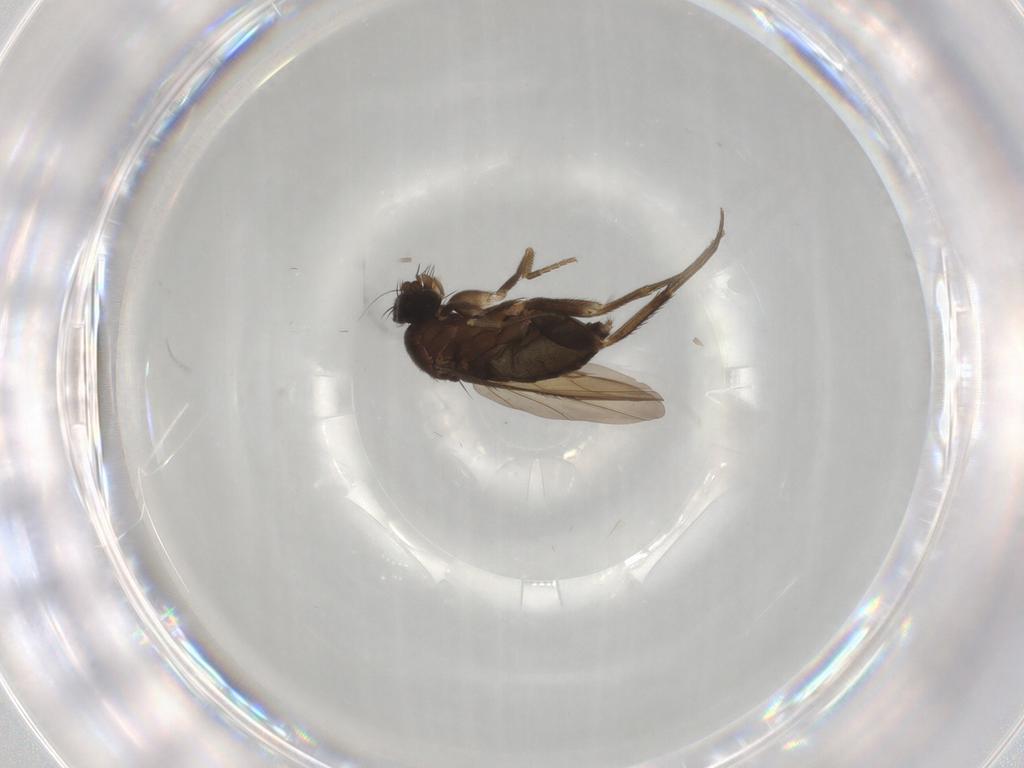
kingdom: Animalia
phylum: Arthropoda
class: Insecta
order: Diptera
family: Phoridae
